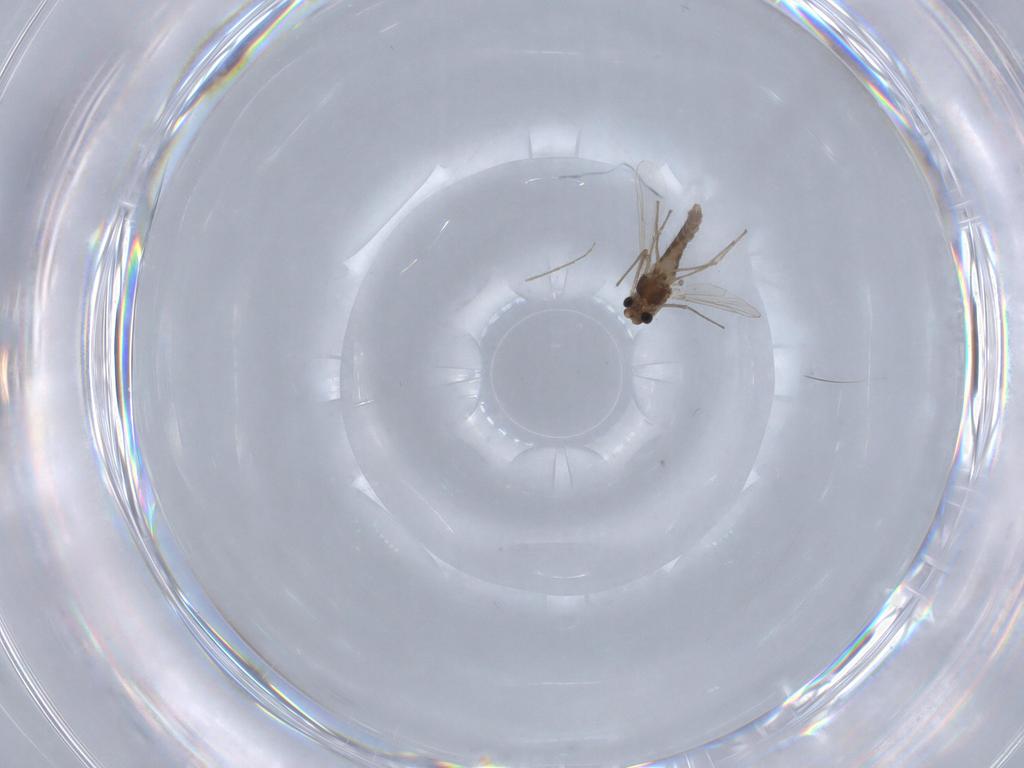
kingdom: Animalia
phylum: Arthropoda
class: Insecta
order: Diptera
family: Chironomidae
